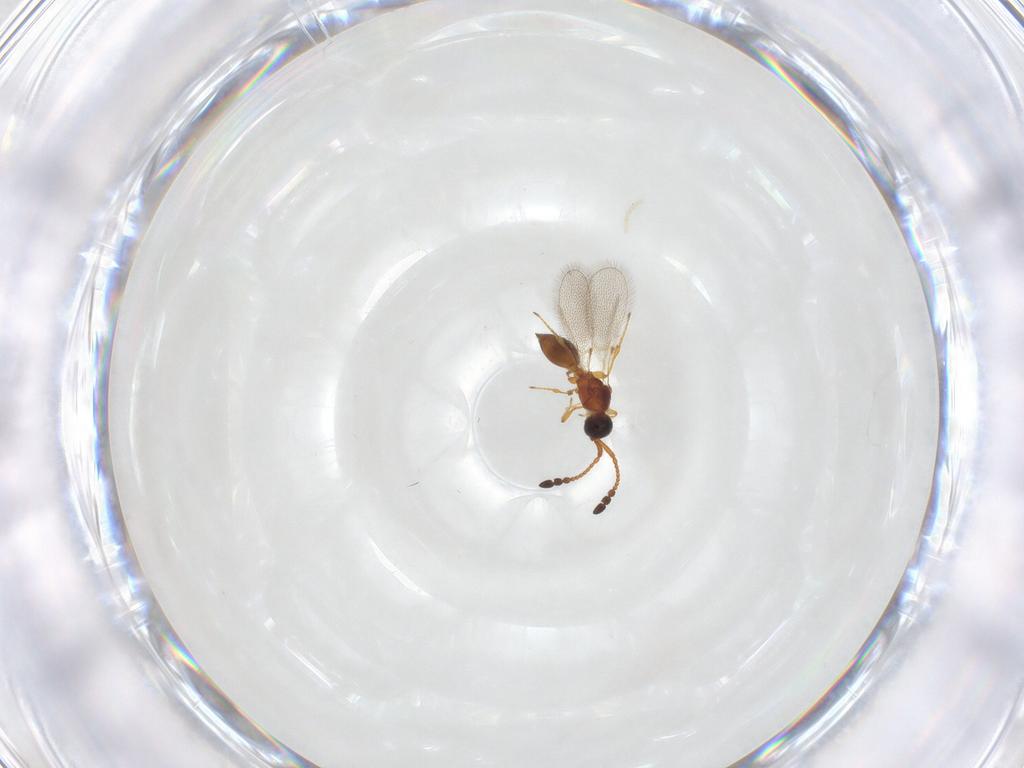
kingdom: Animalia
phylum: Arthropoda
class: Insecta
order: Hymenoptera
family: Diapriidae
